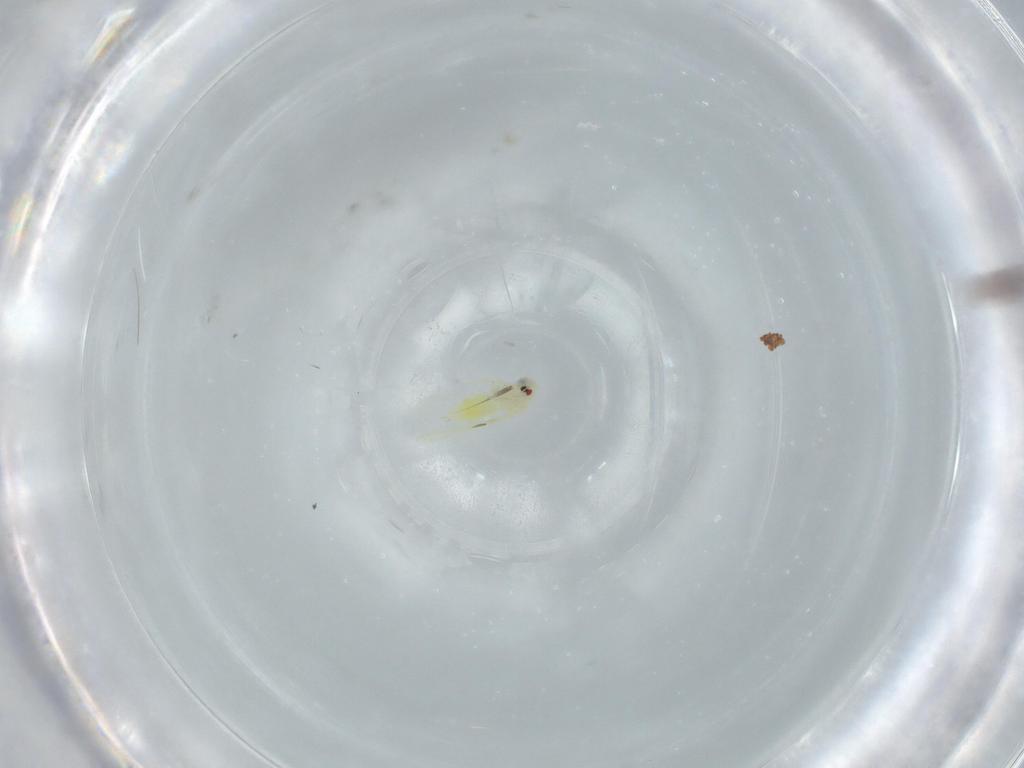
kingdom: Animalia
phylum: Arthropoda
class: Insecta
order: Hemiptera
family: Aleyrodidae
